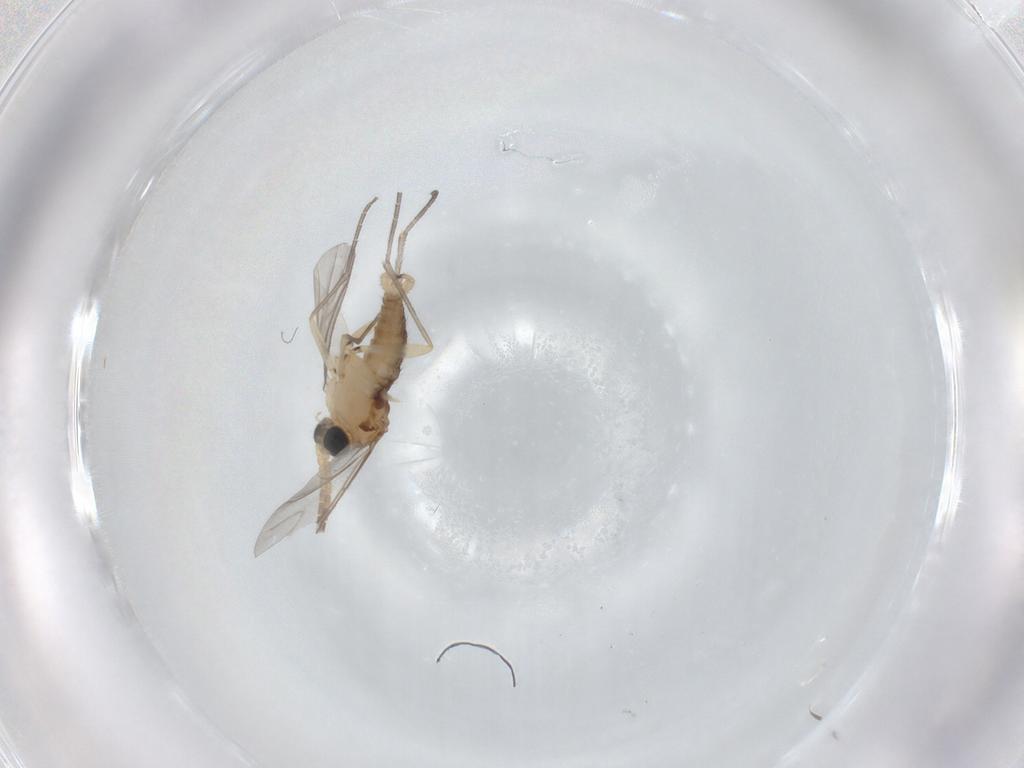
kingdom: Animalia
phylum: Arthropoda
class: Insecta
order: Diptera
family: Sciaridae
